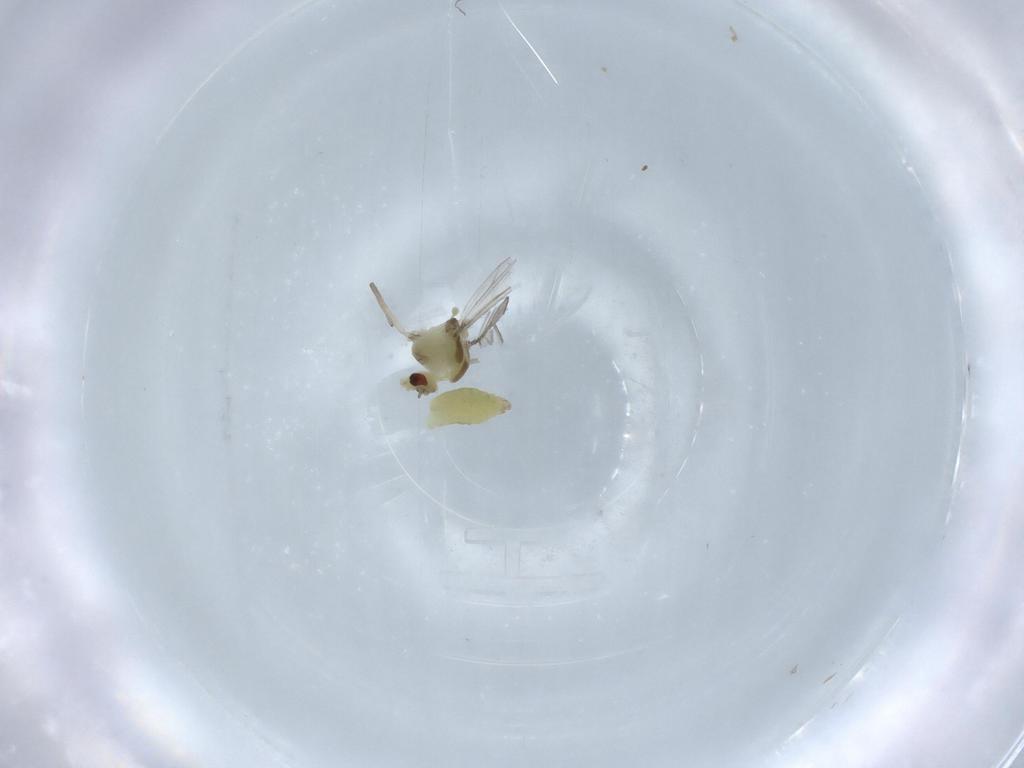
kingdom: Animalia
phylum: Arthropoda
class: Insecta
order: Diptera
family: Chironomidae
